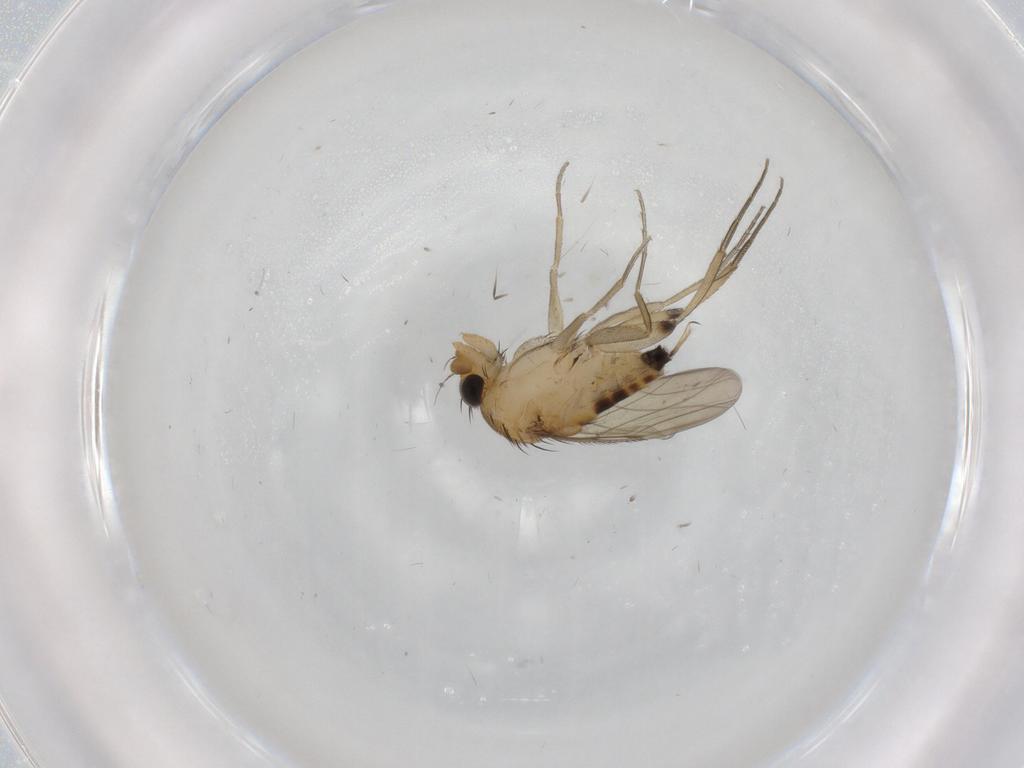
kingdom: Animalia
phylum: Arthropoda
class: Insecta
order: Diptera
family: Phoridae
